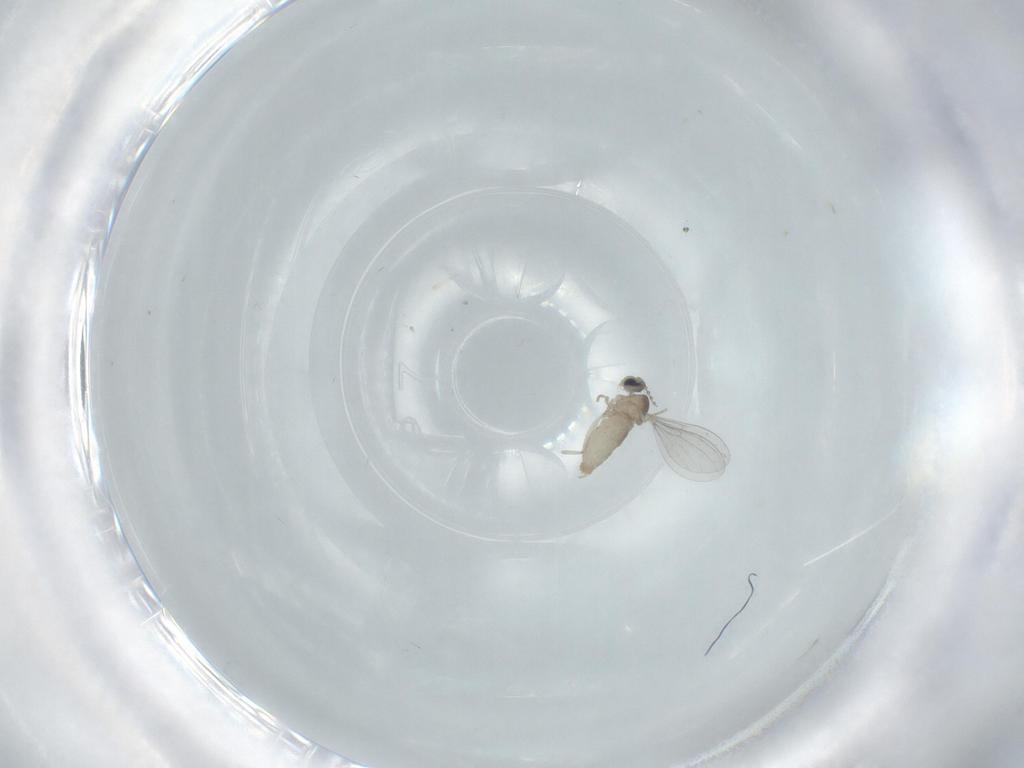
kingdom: Animalia
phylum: Arthropoda
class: Insecta
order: Diptera
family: Cecidomyiidae
